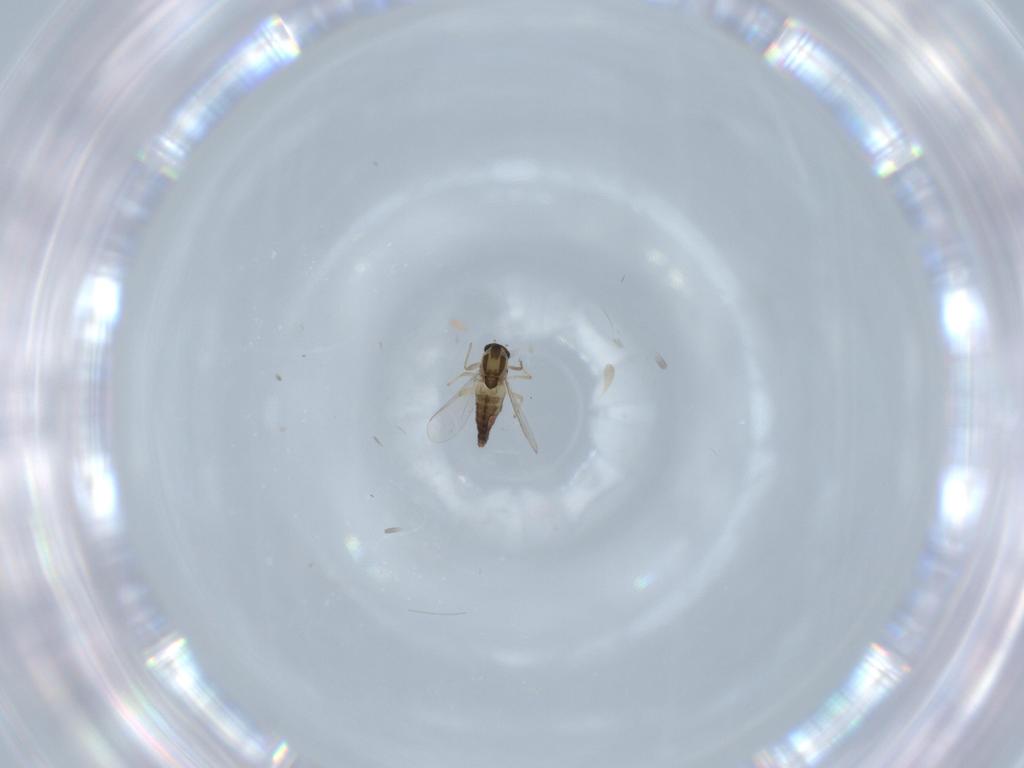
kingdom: Animalia
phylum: Arthropoda
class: Insecta
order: Diptera
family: Chironomidae
